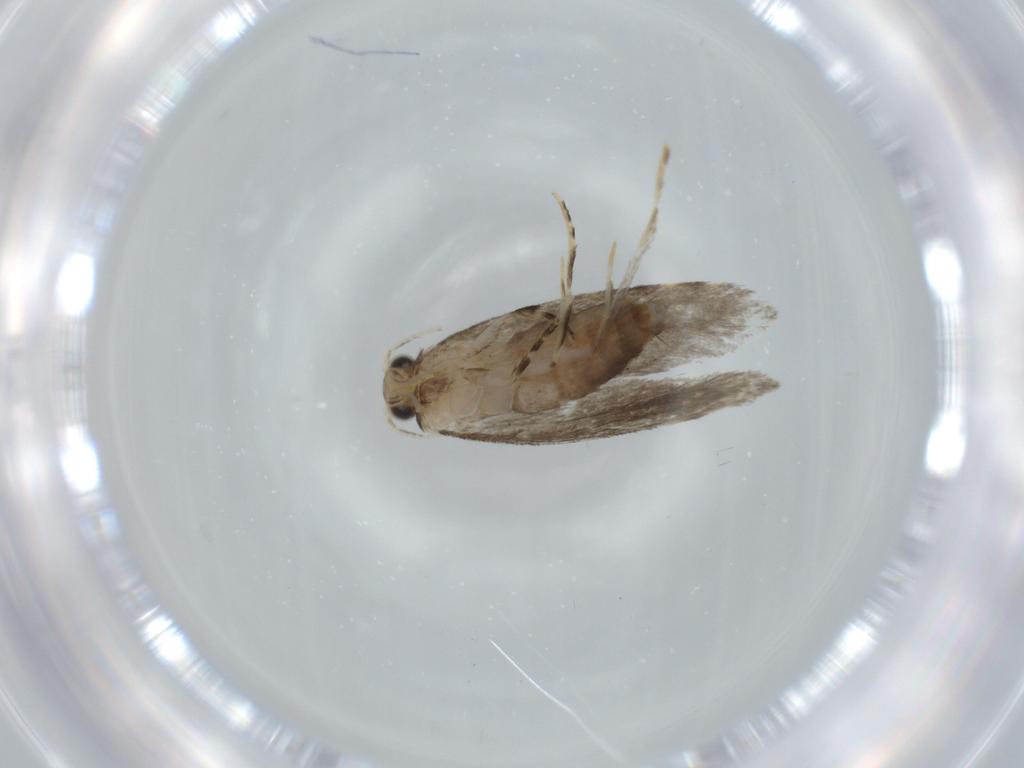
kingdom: Animalia
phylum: Arthropoda
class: Insecta
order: Lepidoptera
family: Tineidae
